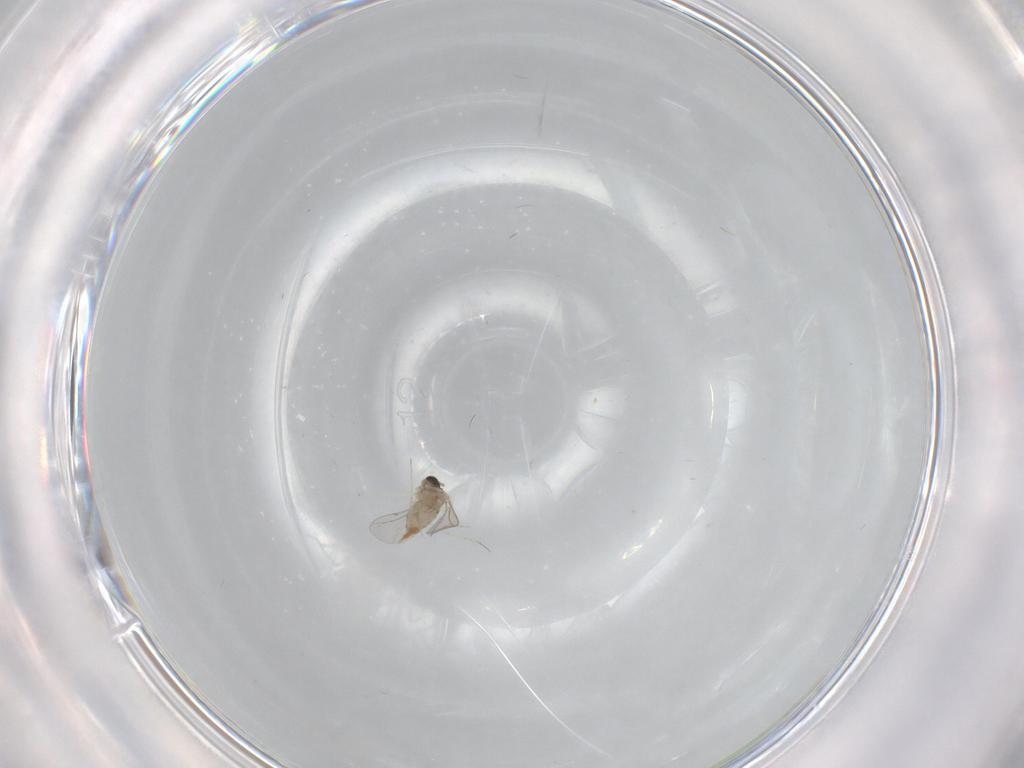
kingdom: Animalia
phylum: Arthropoda
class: Insecta
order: Diptera
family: Cecidomyiidae
